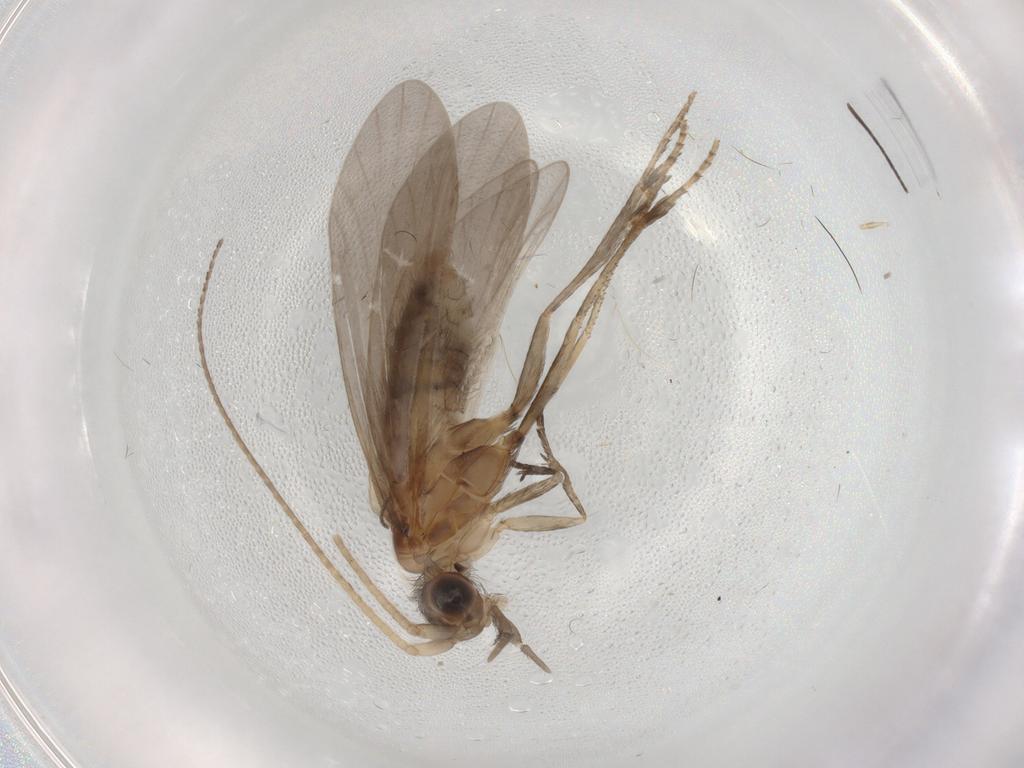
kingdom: Animalia
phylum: Arthropoda
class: Insecta
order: Trichoptera
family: Helicopsychidae
